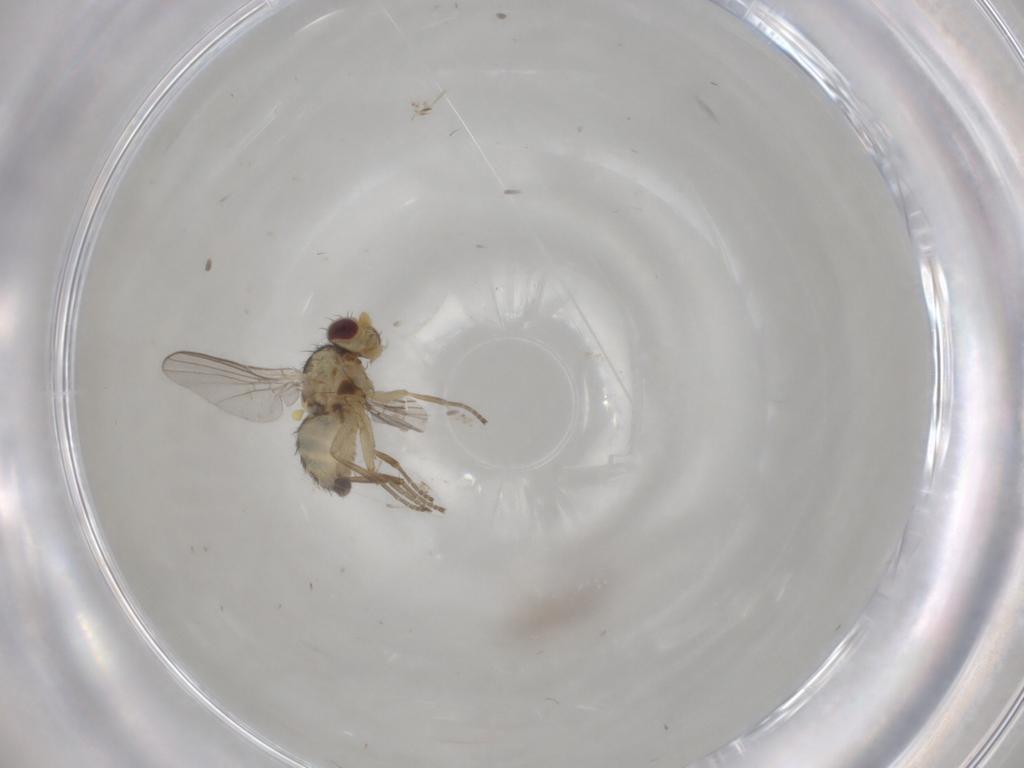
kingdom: Animalia
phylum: Arthropoda
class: Insecta
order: Diptera
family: Agromyzidae
